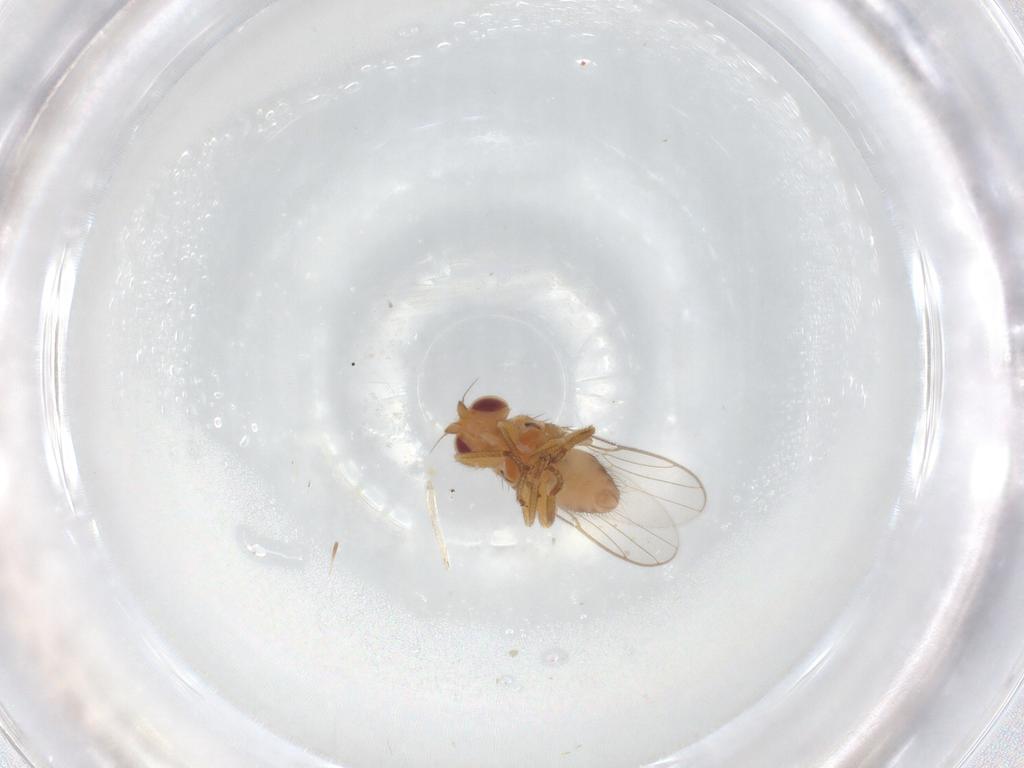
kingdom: Animalia
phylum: Arthropoda
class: Insecta
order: Diptera
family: Chloropidae
